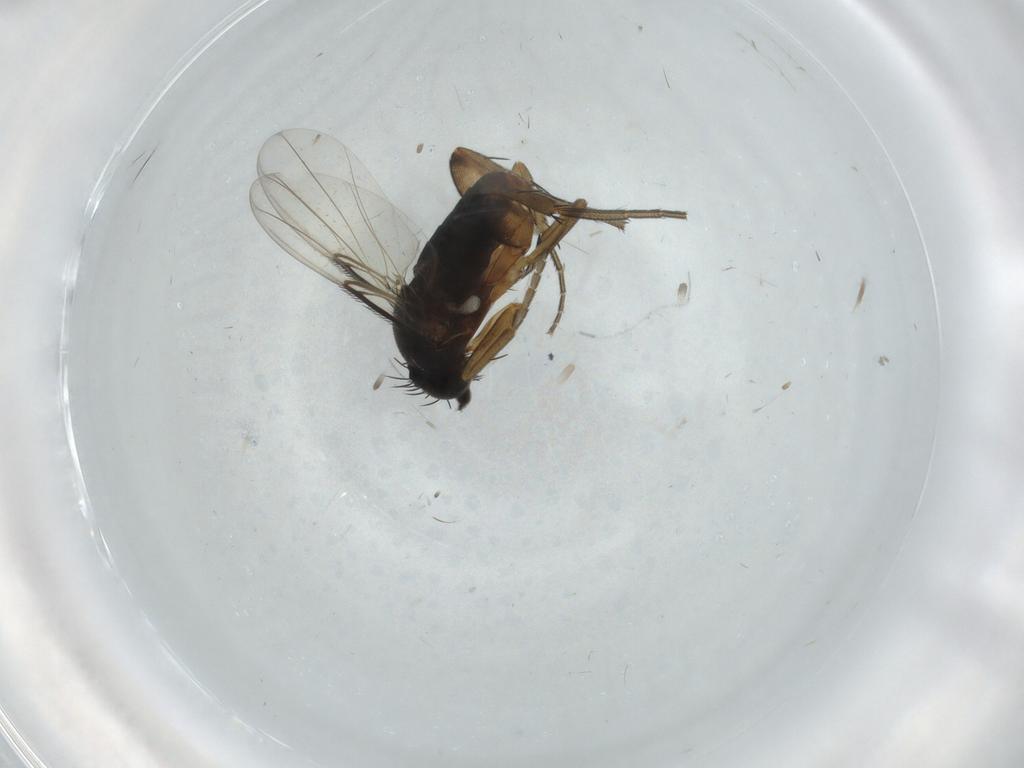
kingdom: Animalia
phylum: Arthropoda
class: Insecta
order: Diptera
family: Phoridae
